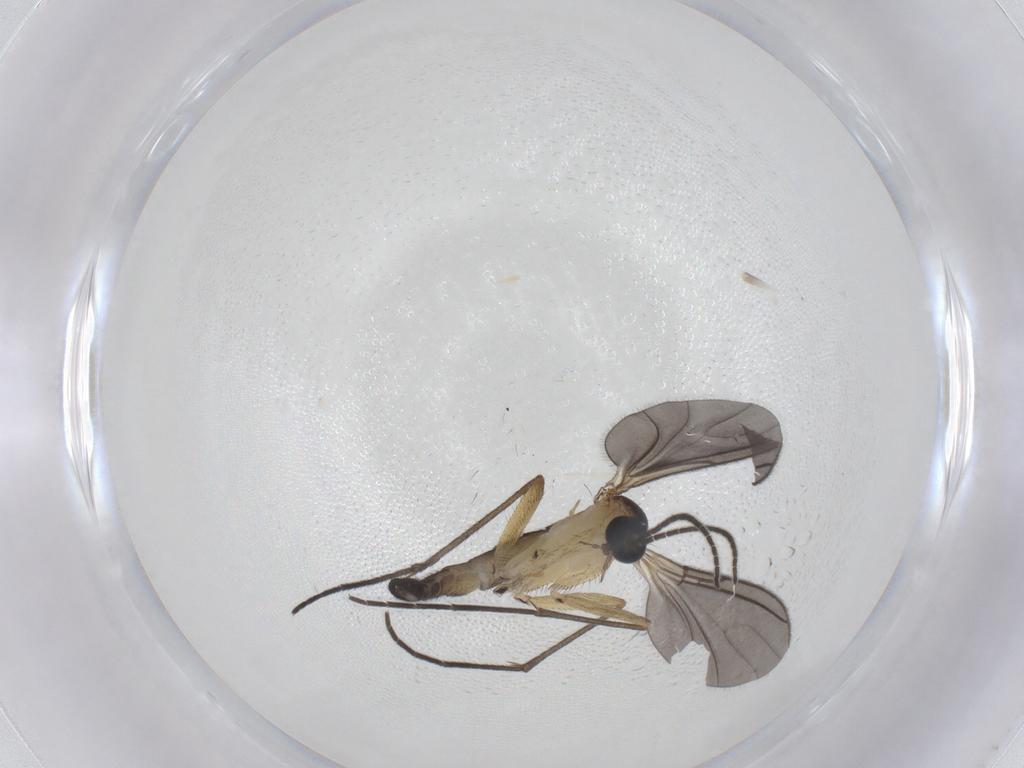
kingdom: Animalia
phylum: Arthropoda
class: Insecta
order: Diptera
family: Sciaridae
